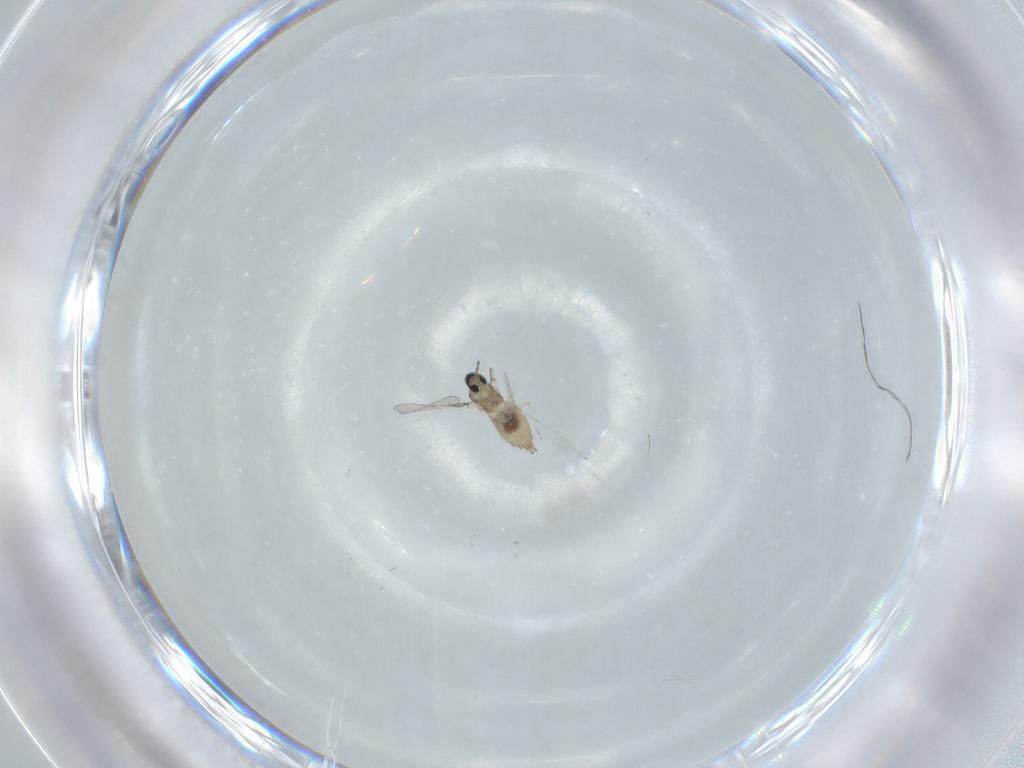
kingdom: Animalia
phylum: Arthropoda
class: Insecta
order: Diptera
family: Cecidomyiidae
